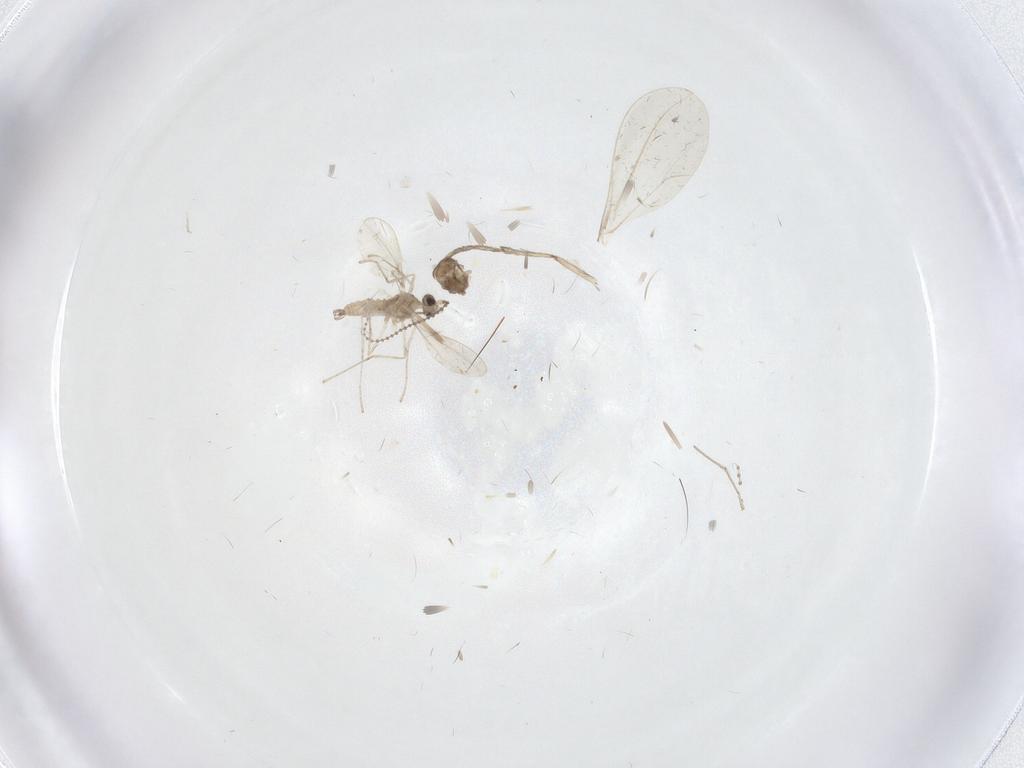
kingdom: Animalia
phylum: Arthropoda
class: Insecta
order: Diptera
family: Cecidomyiidae
